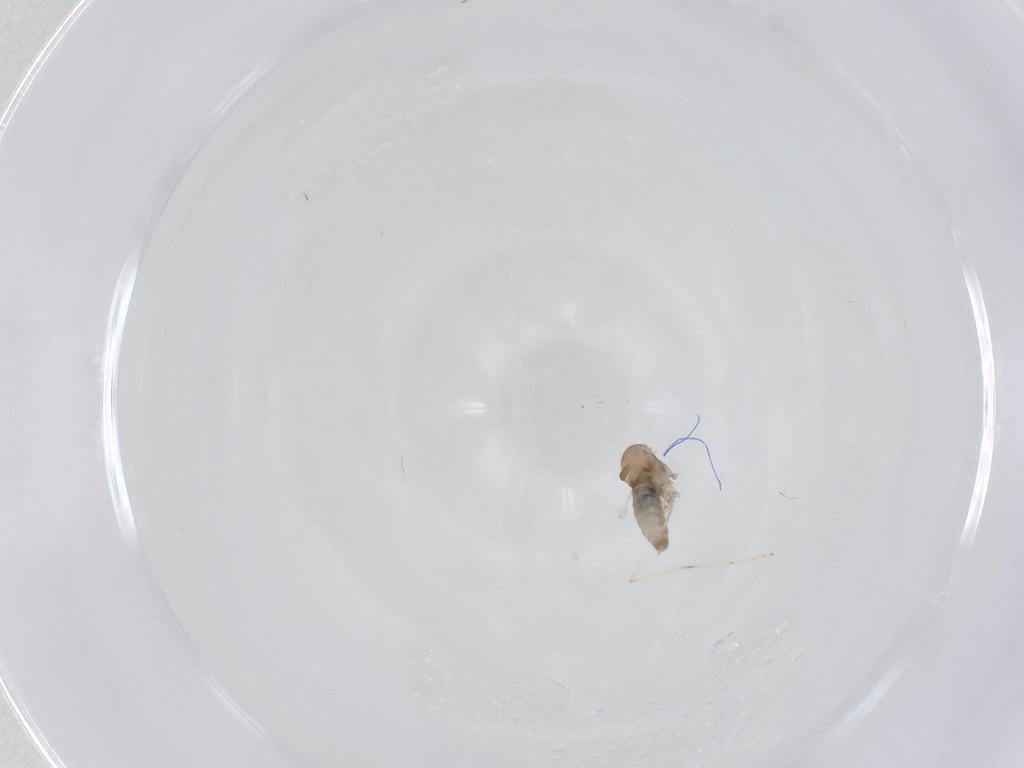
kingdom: Animalia
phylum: Arthropoda
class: Insecta
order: Diptera
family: Cecidomyiidae
